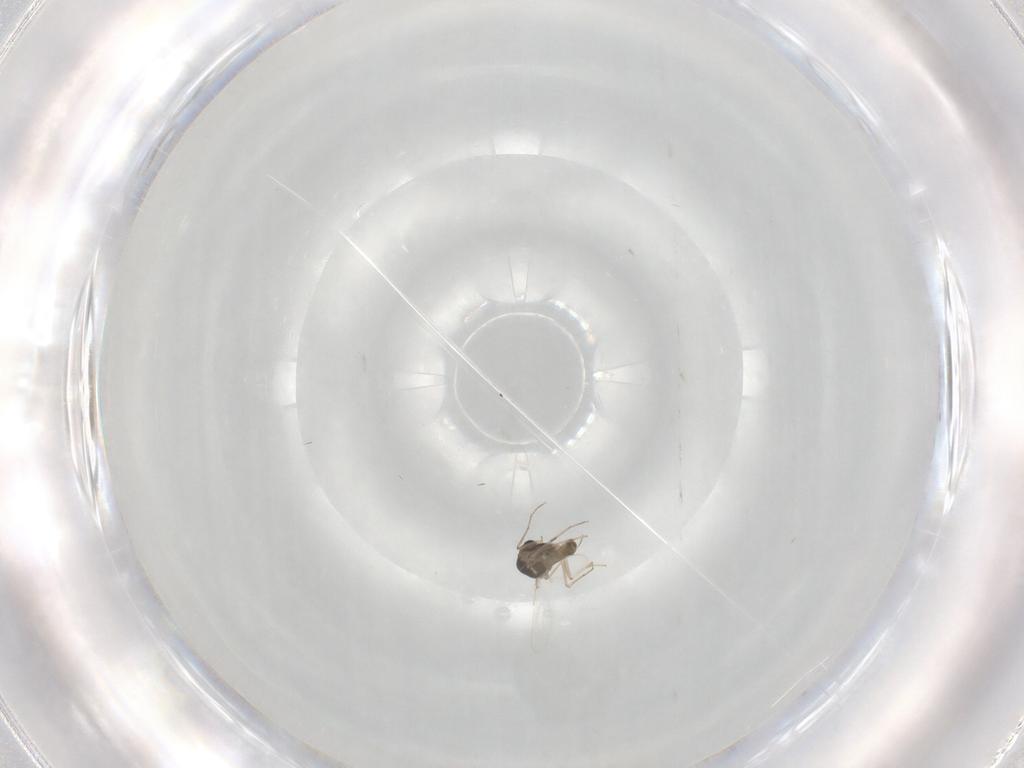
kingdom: Animalia
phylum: Arthropoda
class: Insecta
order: Diptera
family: Chironomidae
